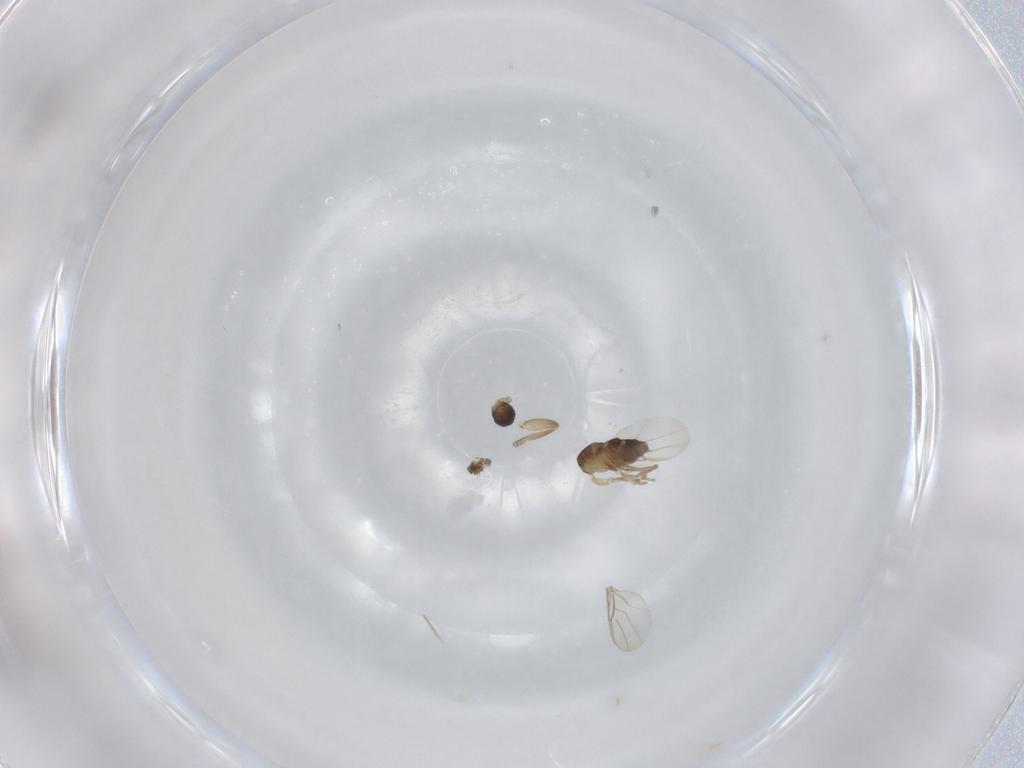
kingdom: Animalia
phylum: Arthropoda
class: Insecta
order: Diptera
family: Phoridae
